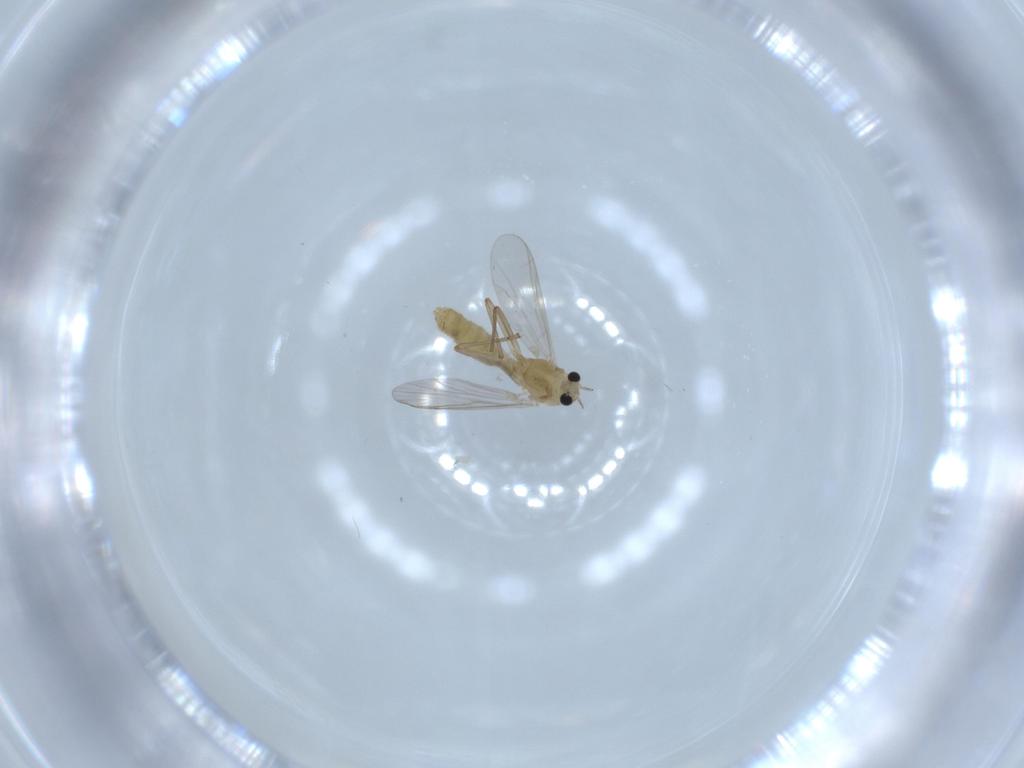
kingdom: Animalia
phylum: Arthropoda
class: Insecta
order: Diptera
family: Chironomidae
